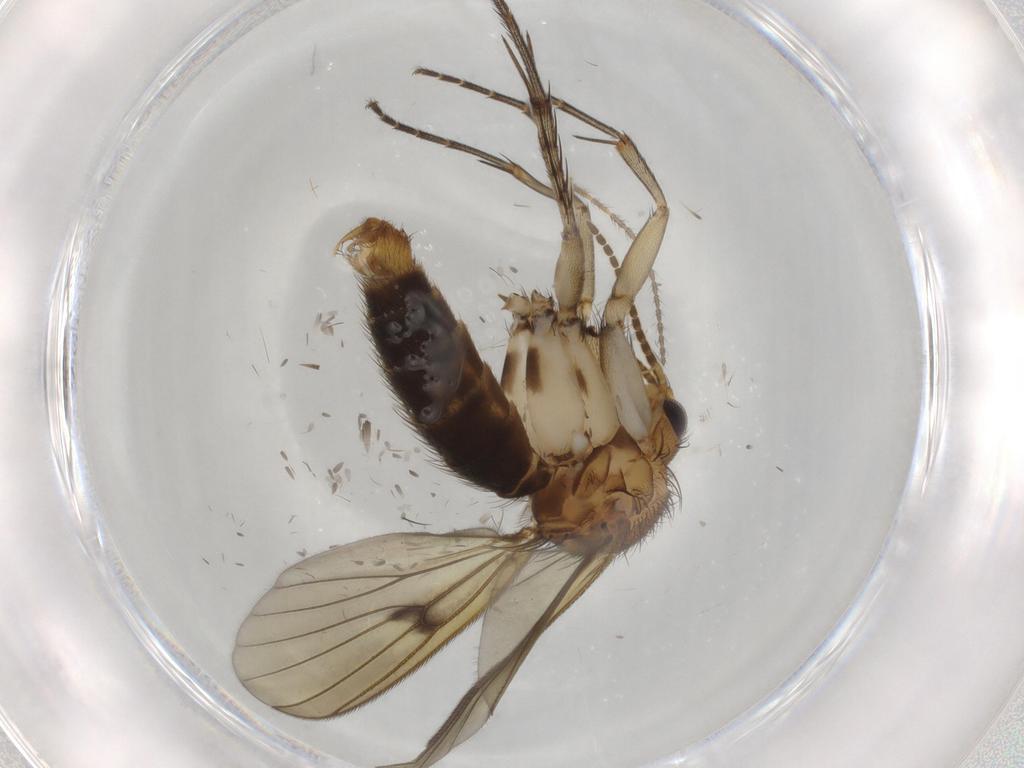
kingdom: Animalia
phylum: Arthropoda
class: Insecta
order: Diptera
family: Limoniidae
